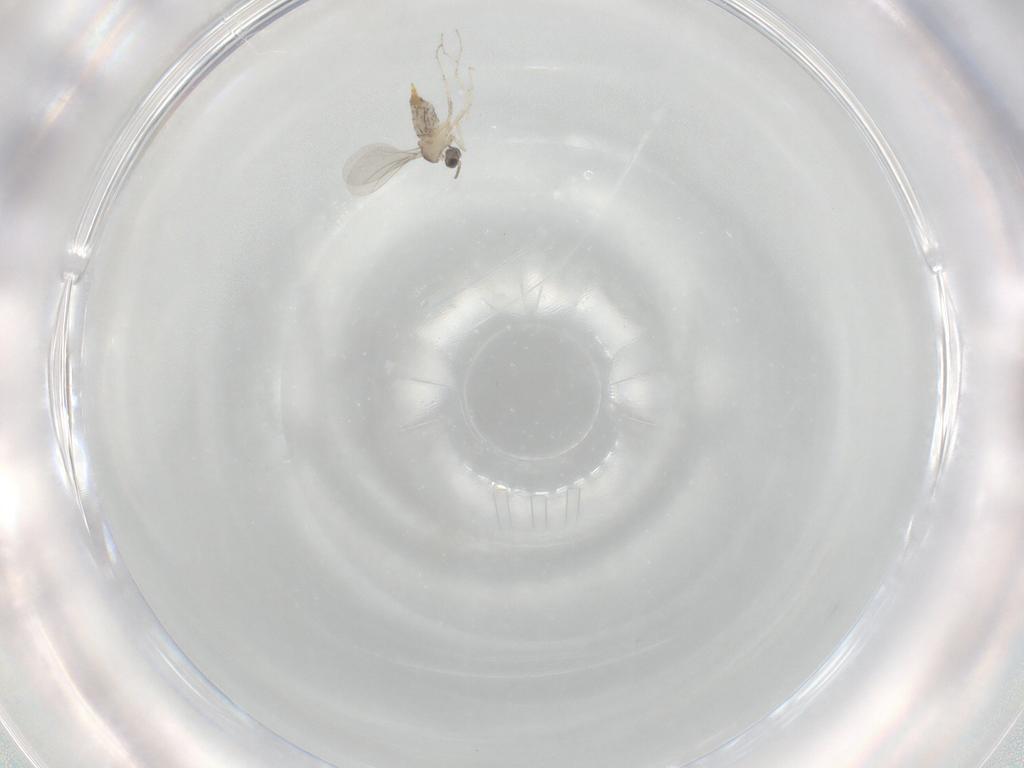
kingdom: Animalia
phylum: Arthropoda
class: Insecta
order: Diptera
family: Cecidomyiidae
